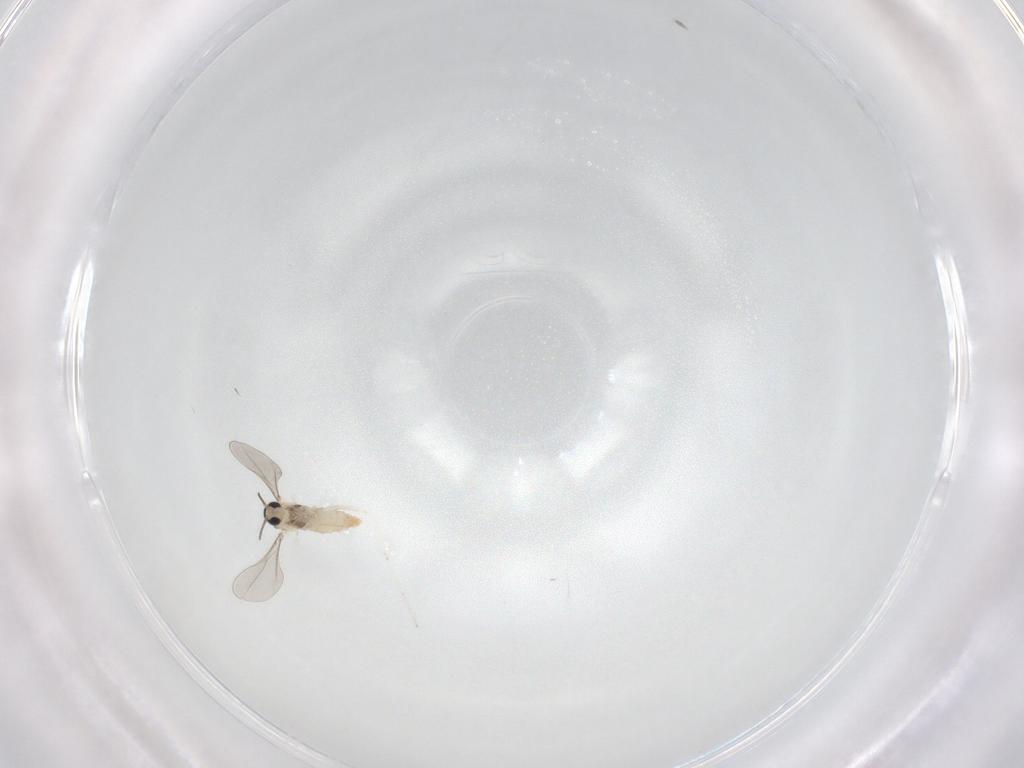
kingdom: Animalia
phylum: Arthropoda
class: Insecta
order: Diptera
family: Cecidomyiidae
